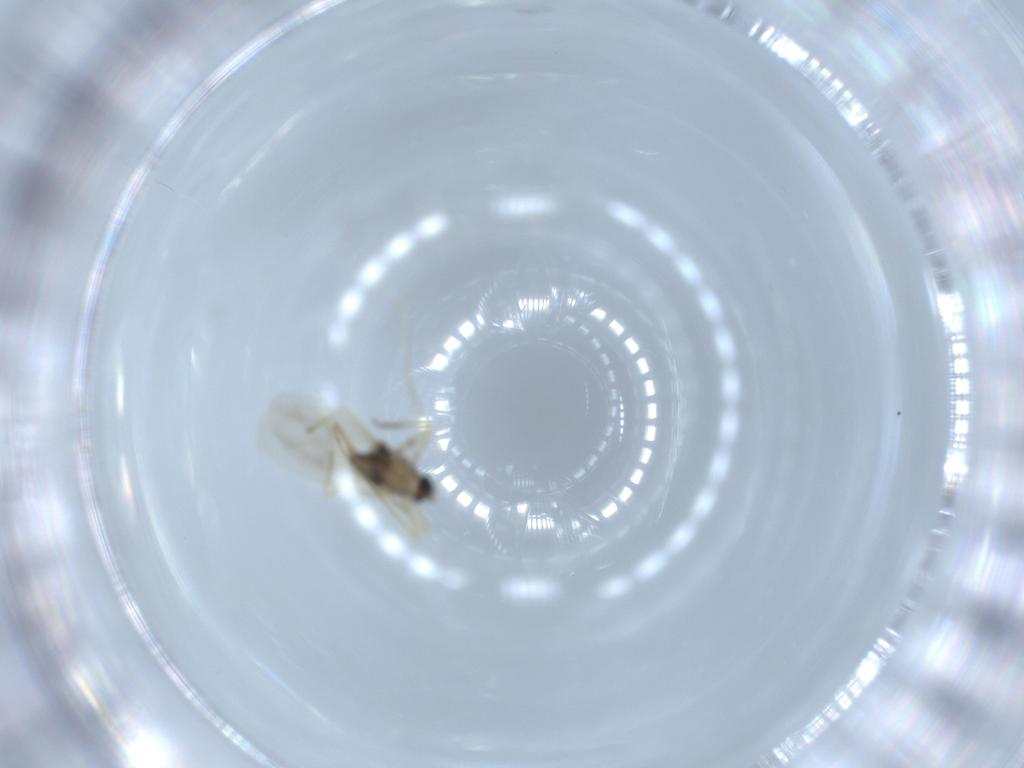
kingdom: Animalia
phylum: Arthropoda
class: Insecta
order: Diptera
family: Cecidomyiidae
